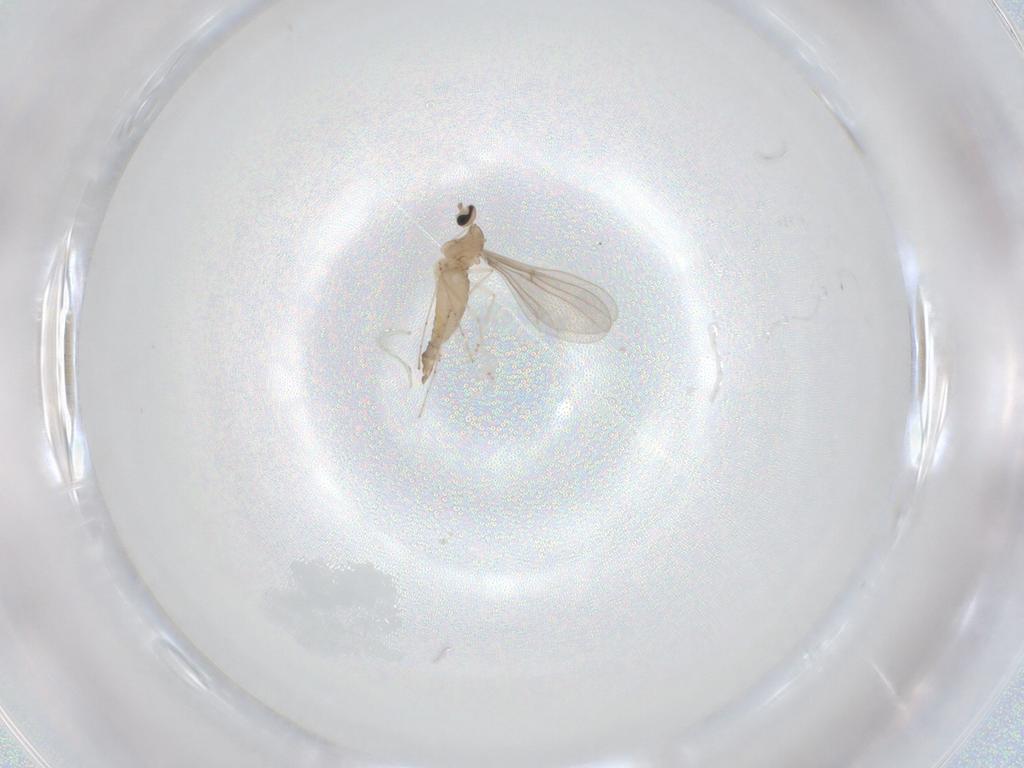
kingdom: Animalia
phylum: Arthropoda
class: Insecta
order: Diptera
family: Cecidomyiidae
